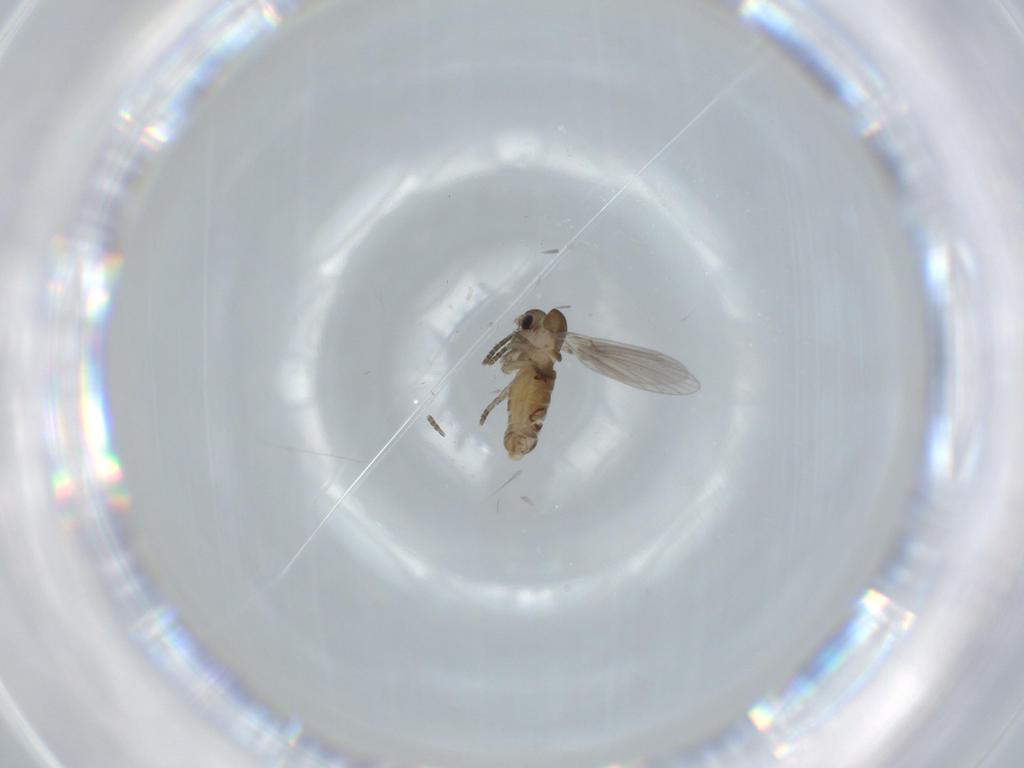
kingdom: Animalia
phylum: Arthropoda
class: Insecta
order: Diptera
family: Psychodidae
